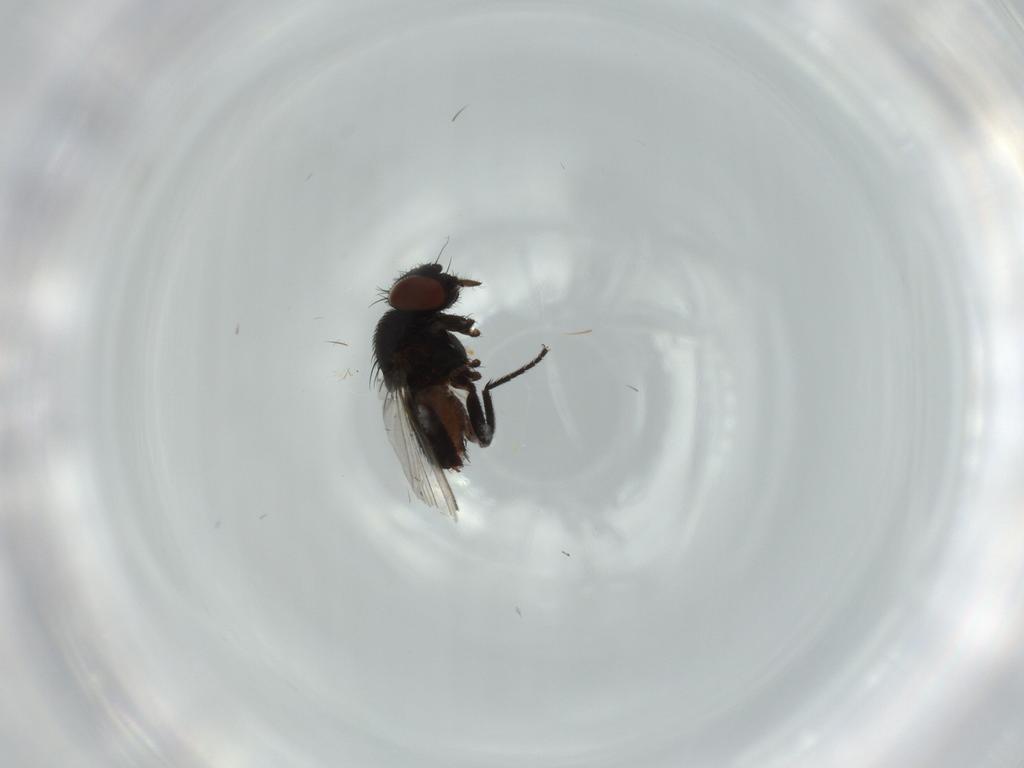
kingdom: Animalia
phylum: Arthropoda
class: Insecta
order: Diptera
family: Milichiidae
